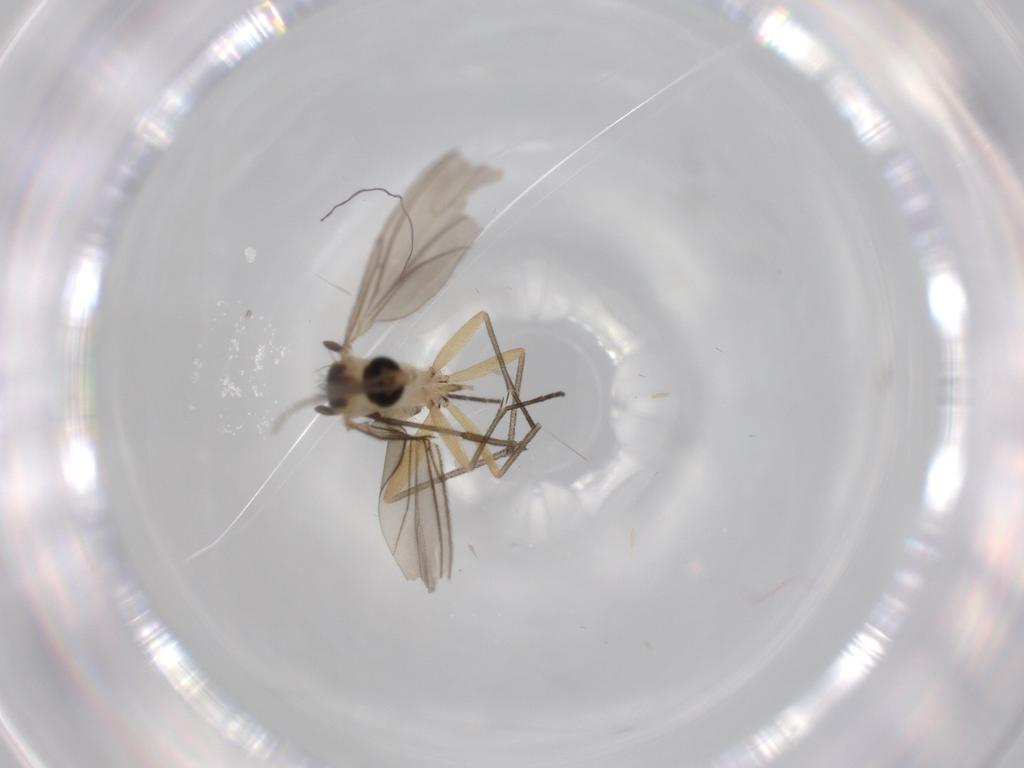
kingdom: Animalia
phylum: Arthropoda
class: Insecta
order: Diptera
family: Sciaridae
